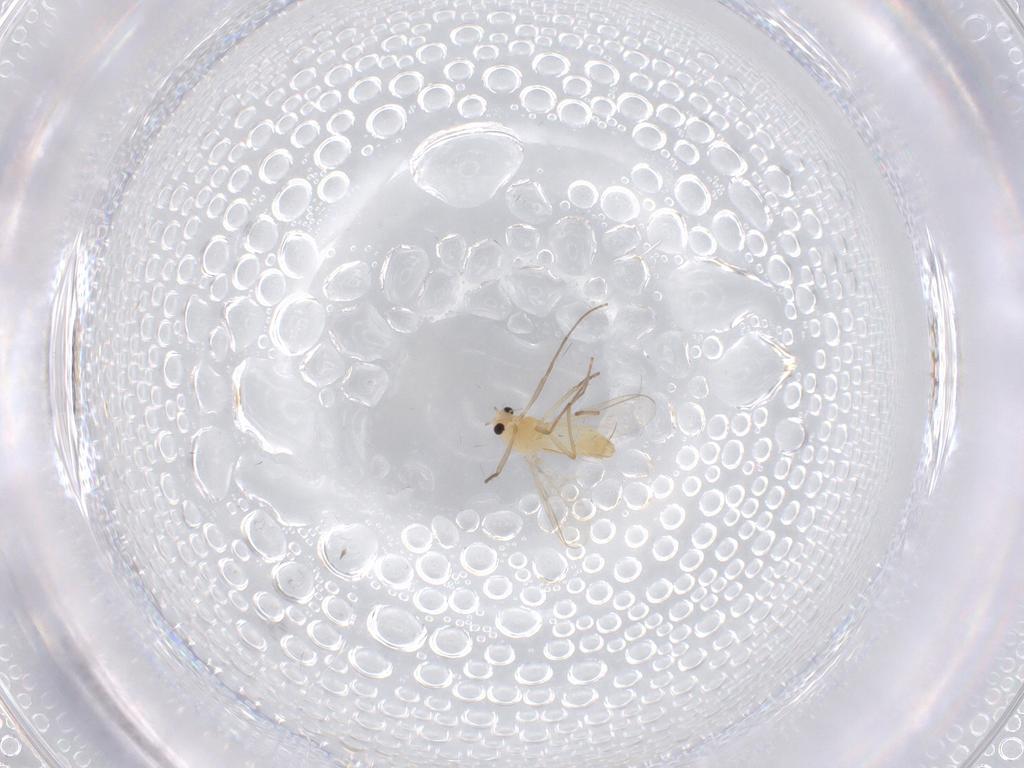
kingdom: Animalia
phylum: Arthropoda
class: Insecta
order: Diptera
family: Chironomidae
